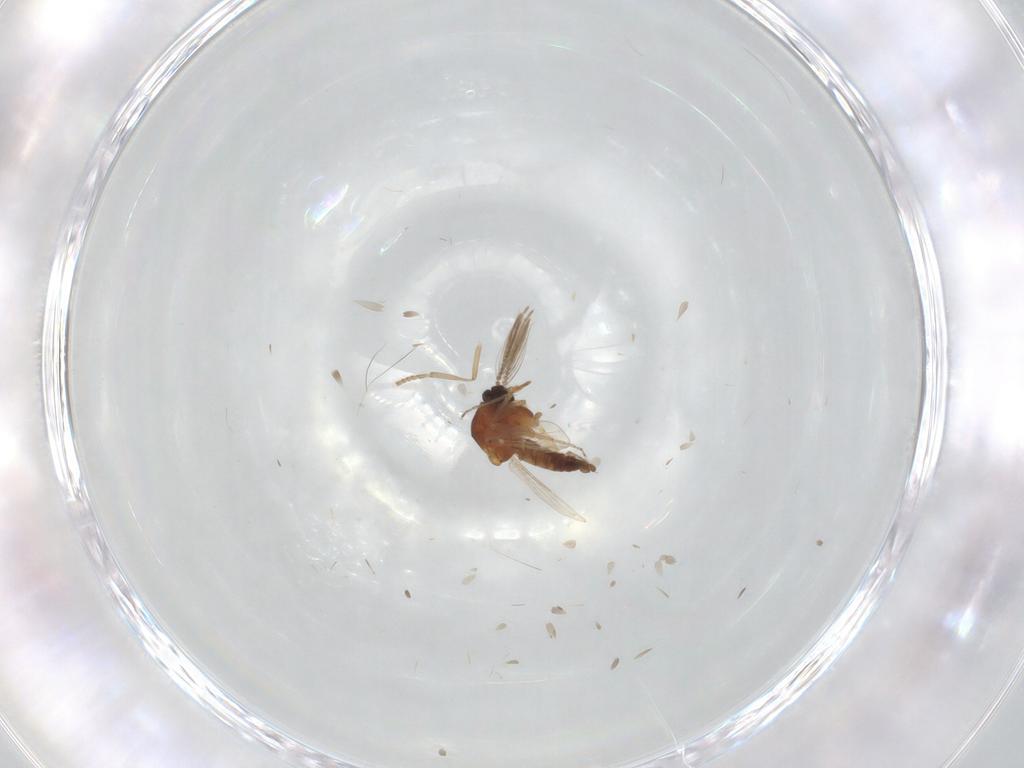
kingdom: Animalia
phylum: Arthropoda
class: Insecta
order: Diptera
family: Ceratopogonidae
